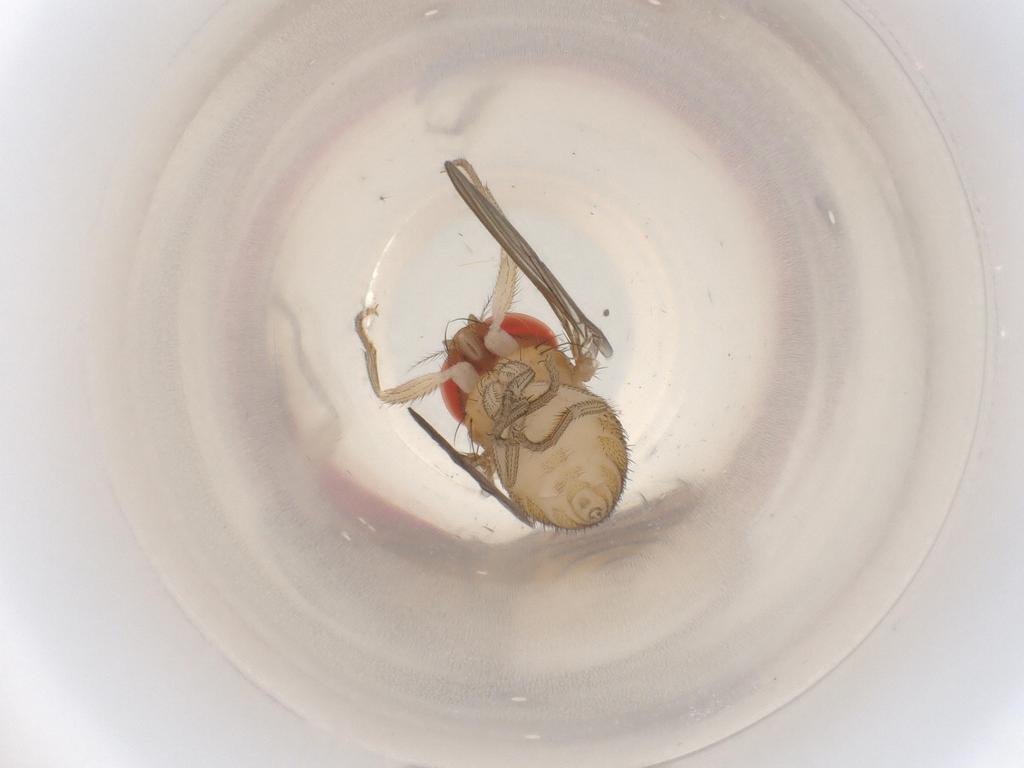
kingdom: Animalia
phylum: Arthropoda
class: Insecta
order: Diptera
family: Drosophilidae
